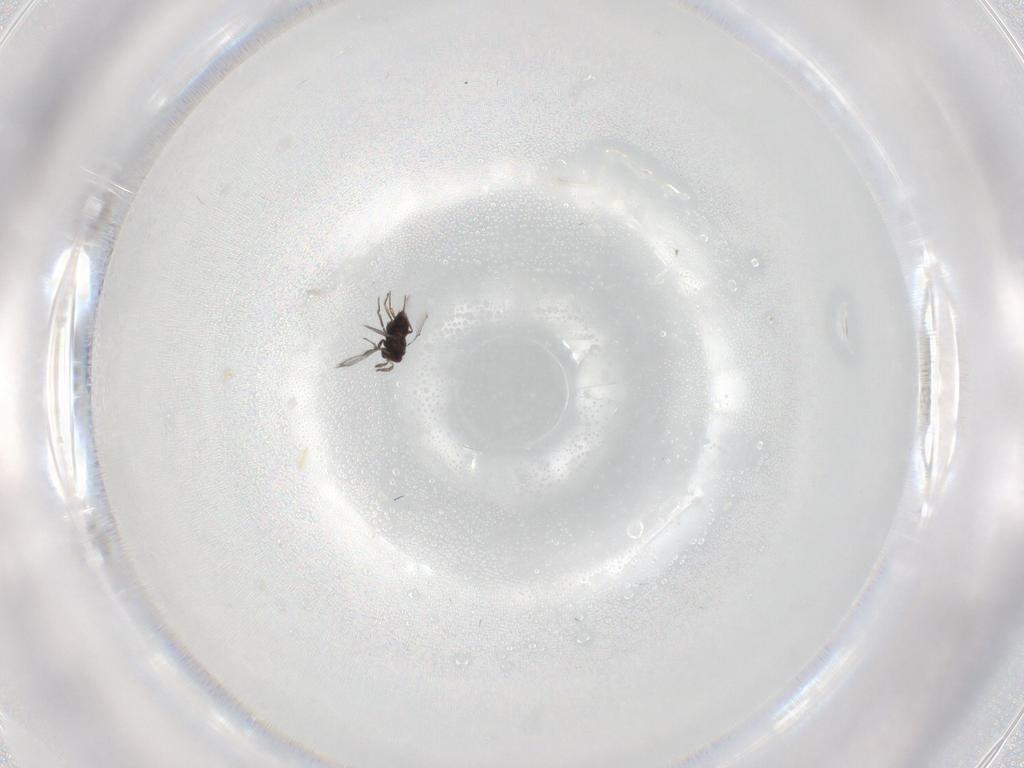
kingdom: Animalia
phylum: Arthropoda
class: Insecta
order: Hymenoptera
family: Trichogrammatidae
